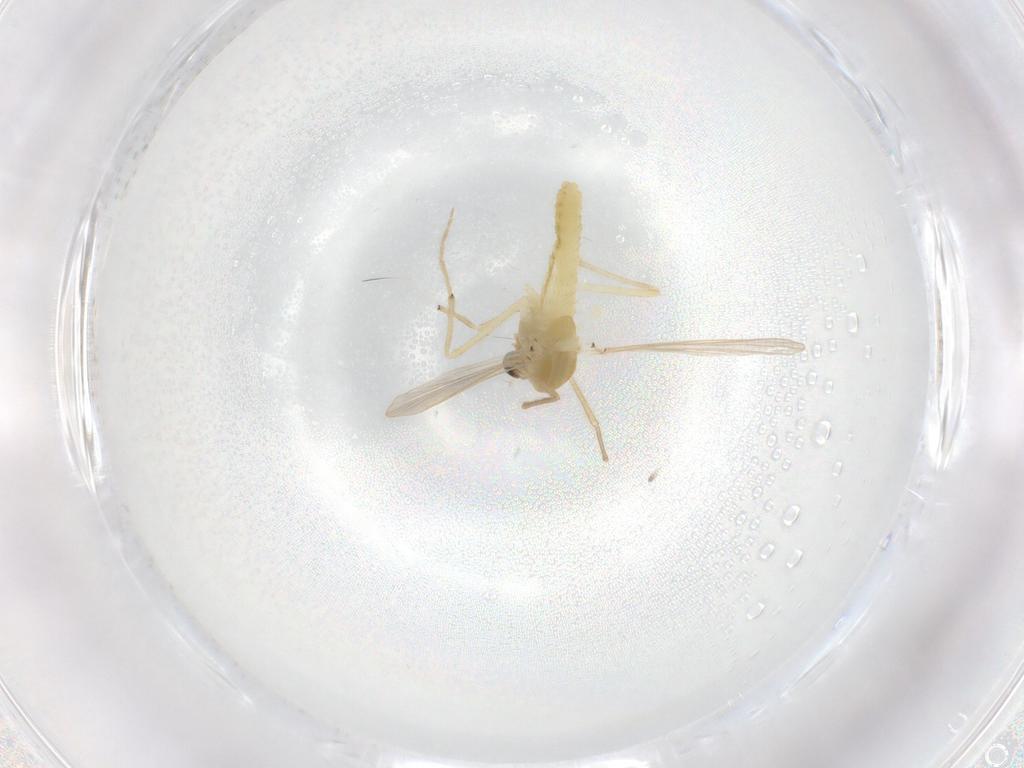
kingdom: Animalia
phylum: Arthropoda
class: Insecta
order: Diptera
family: Chironomidae
